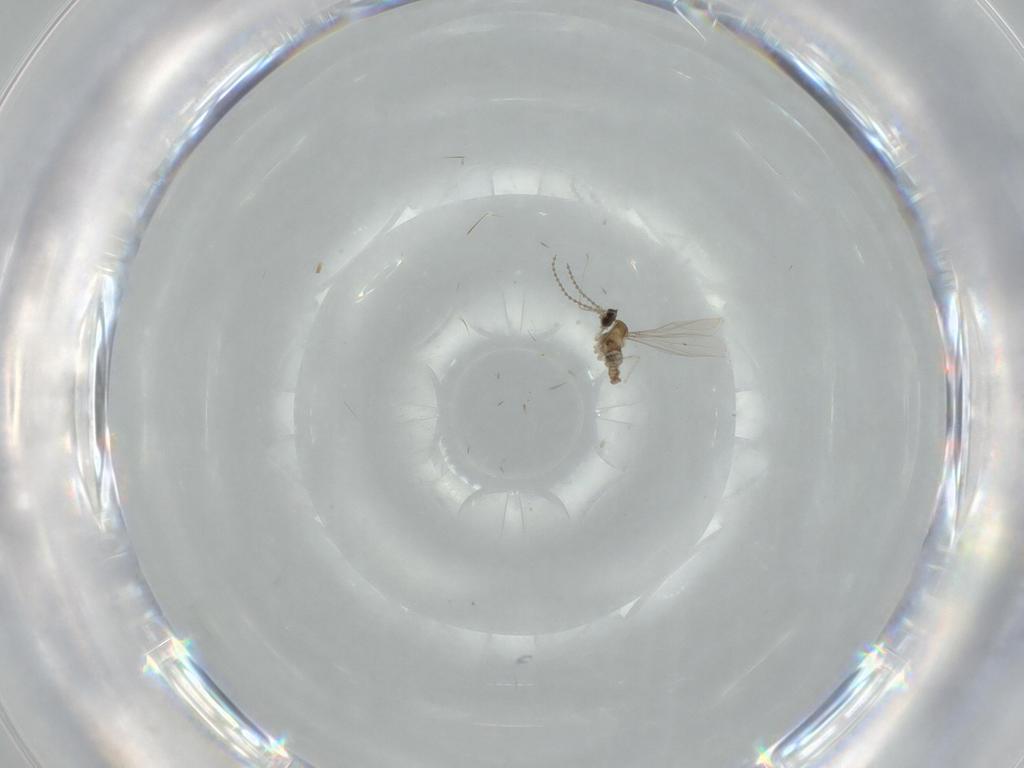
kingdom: Animalia
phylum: Arthropoda
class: Insecta
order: Diptera
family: Cecidomyiidae
